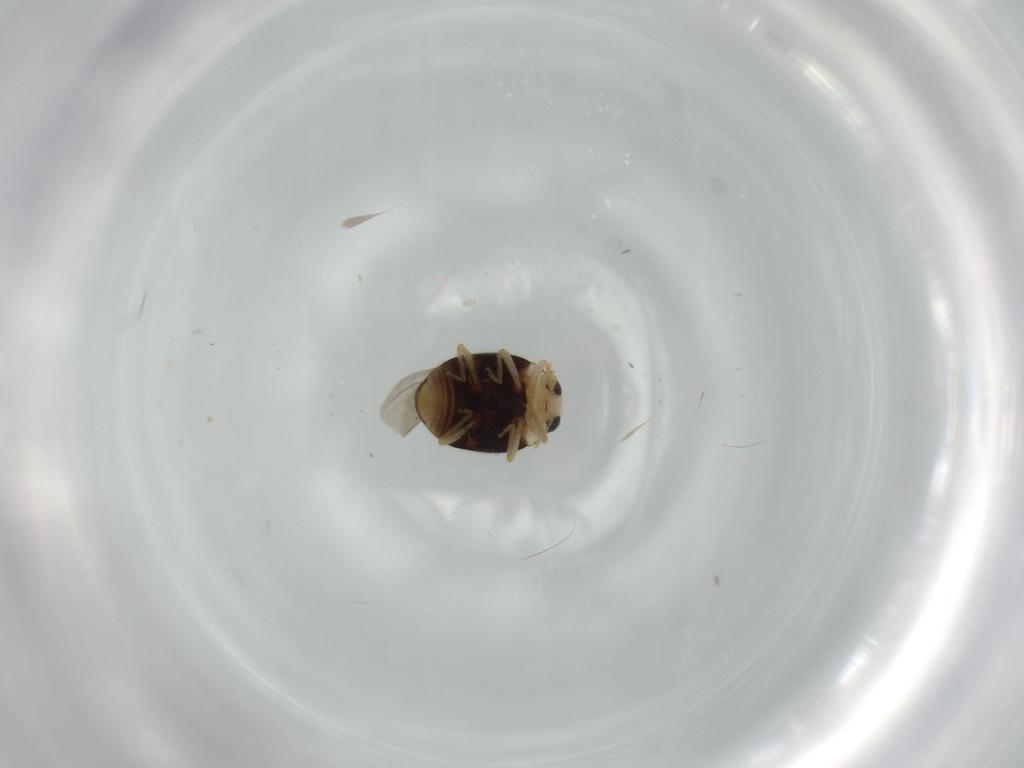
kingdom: Animalia
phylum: Arthropoda
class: Insecta
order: Coleoptera
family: Coccinellidae
